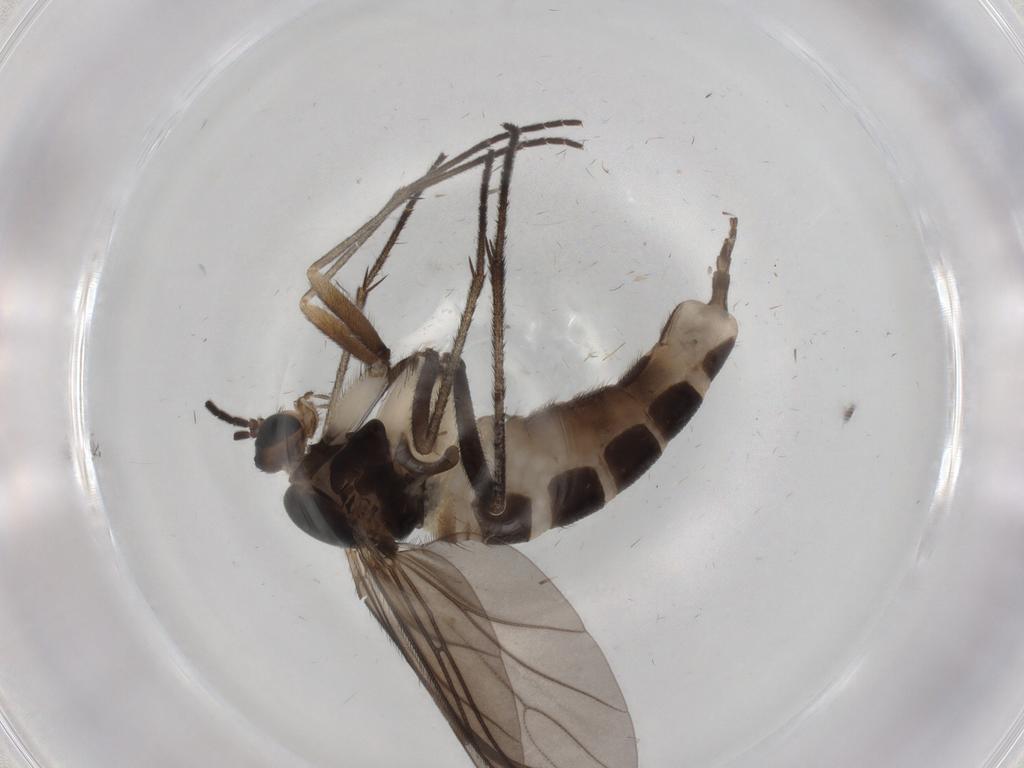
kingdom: Animalia
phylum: Arthropoda
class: Insecta
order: Diptera
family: Sciaridae
